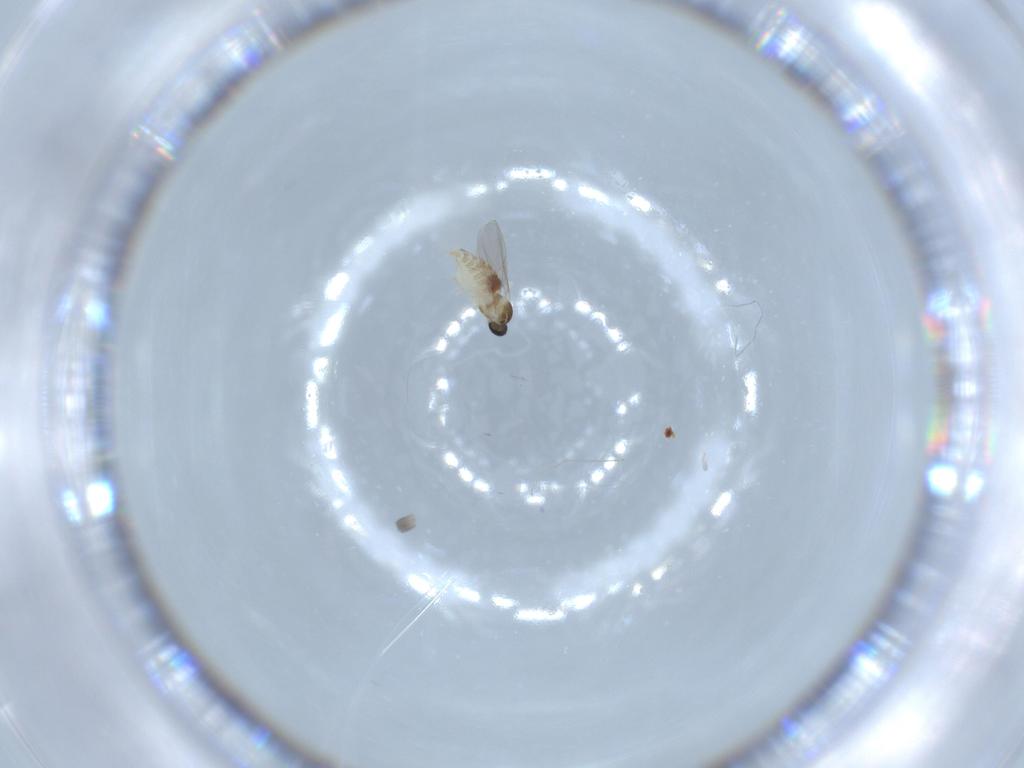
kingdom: Animalia
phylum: Arthropoda
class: Insecta
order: Diptera
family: Cecidomyiidae
